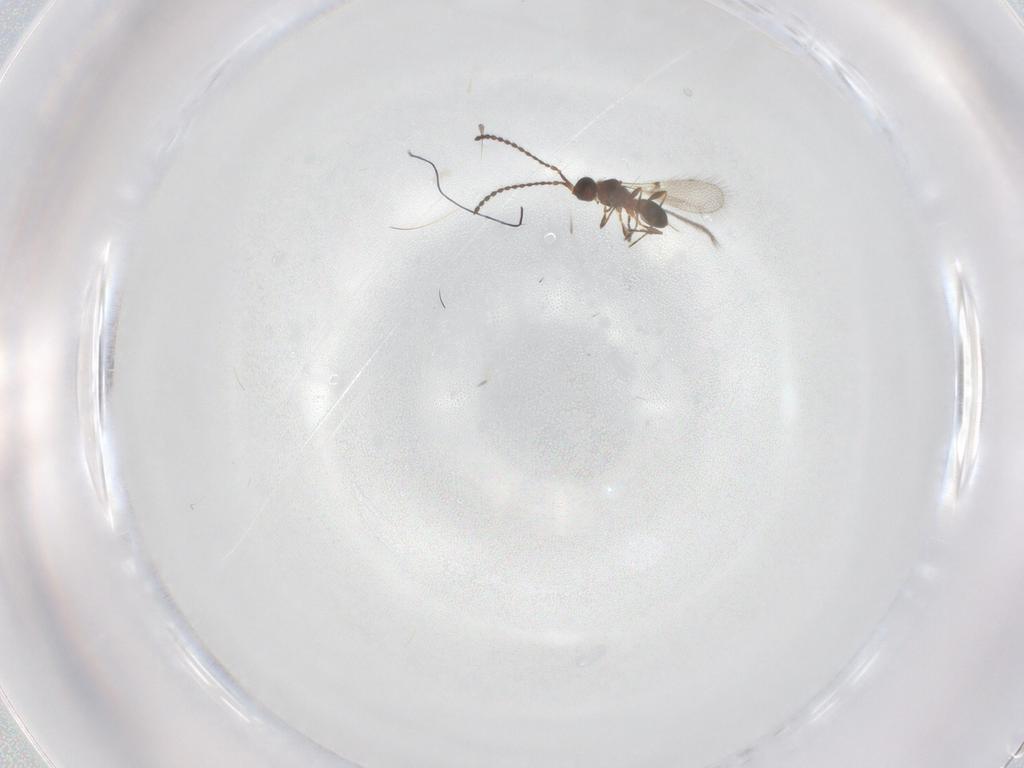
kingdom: Animalia
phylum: Arthropoda
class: Insecta
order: Hymenoptera
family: Diapriidae
